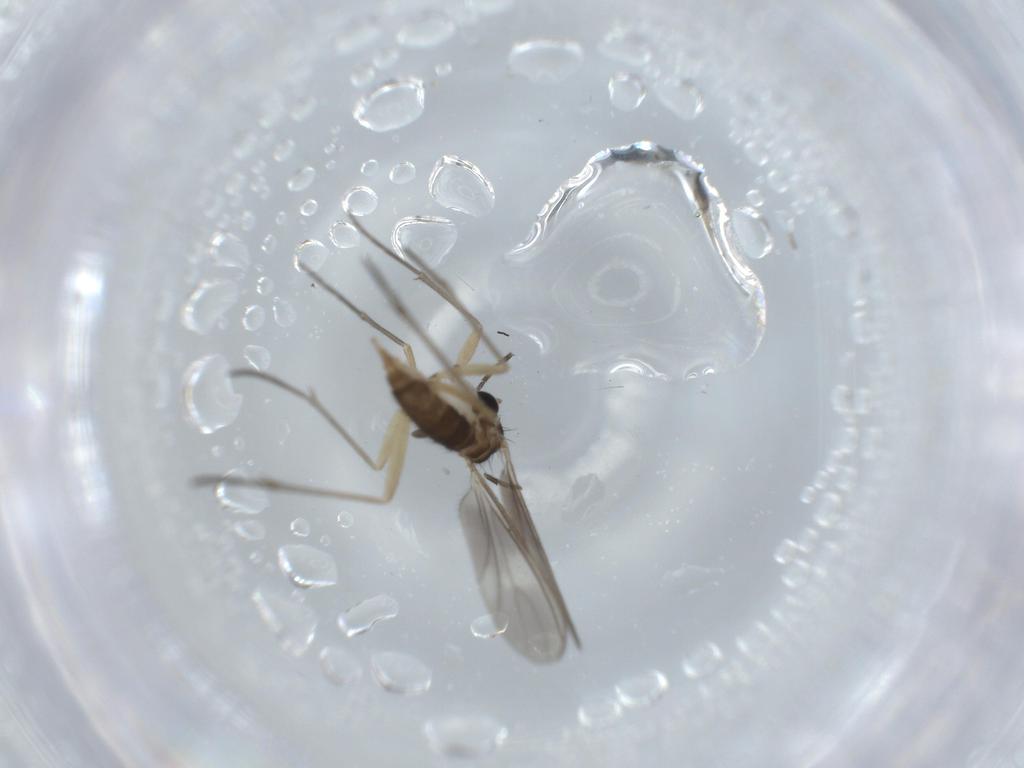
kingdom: Animalia
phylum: Arthropoda
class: Insecta
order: Diptera
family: Sciaridae
